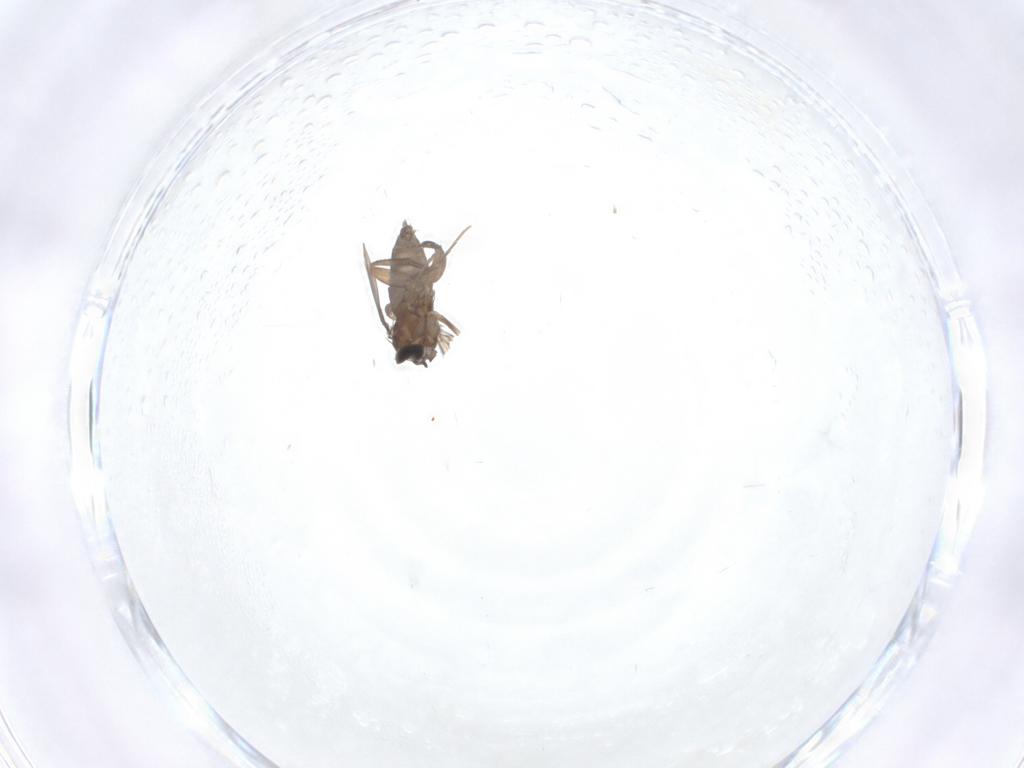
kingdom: Animalia
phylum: Arthropoda
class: Insecta
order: Diptera
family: Phoridae
